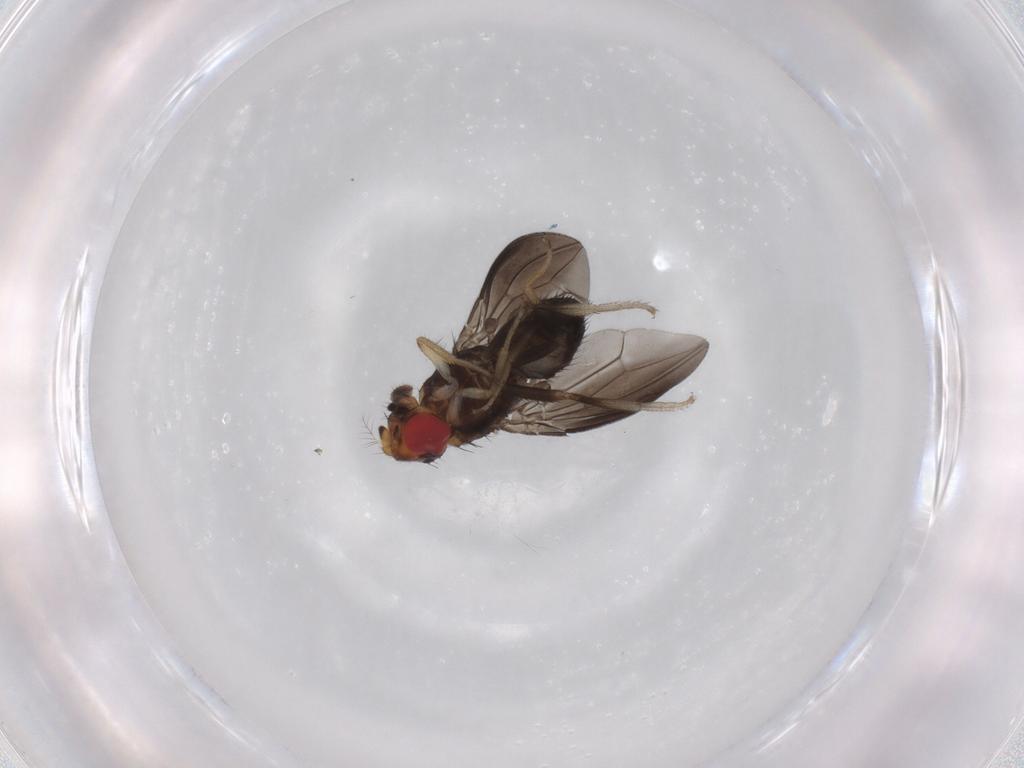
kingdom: Animalia
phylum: Arthropoda
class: Insecta
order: Diptera
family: Drosophilidae
